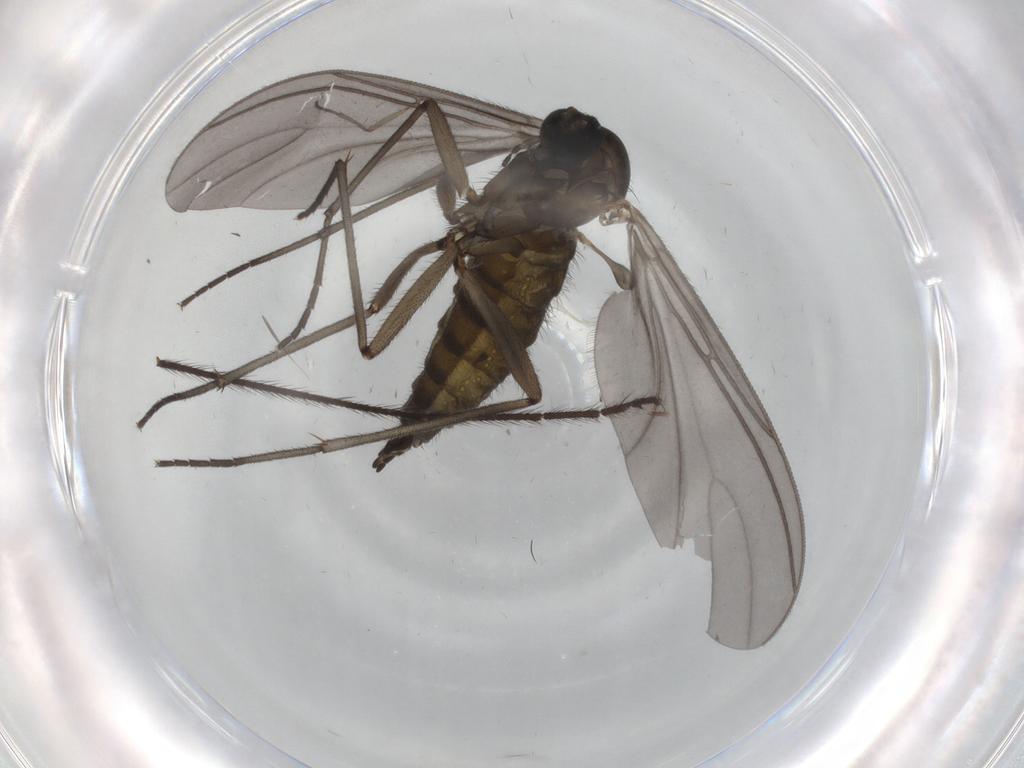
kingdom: Animalia
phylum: Arthropoda
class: Insecta
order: Diptera
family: Sciaridae
